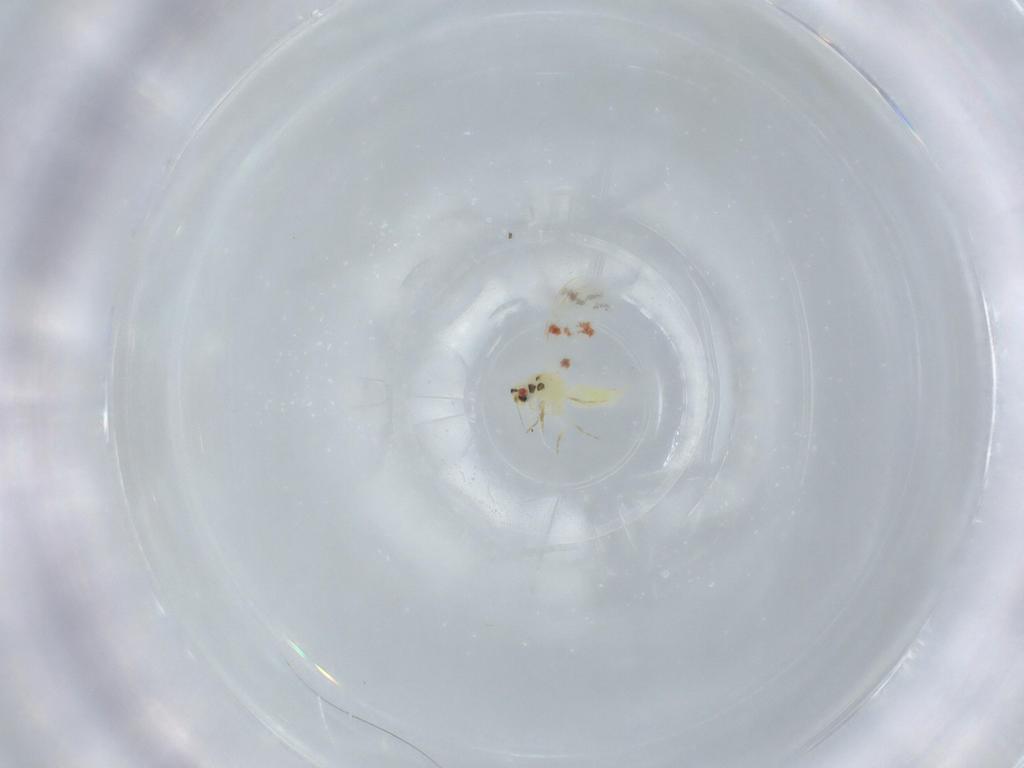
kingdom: Animalia
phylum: Arthropoda
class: Insecta
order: Hemiptera
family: Aleyrodidae
